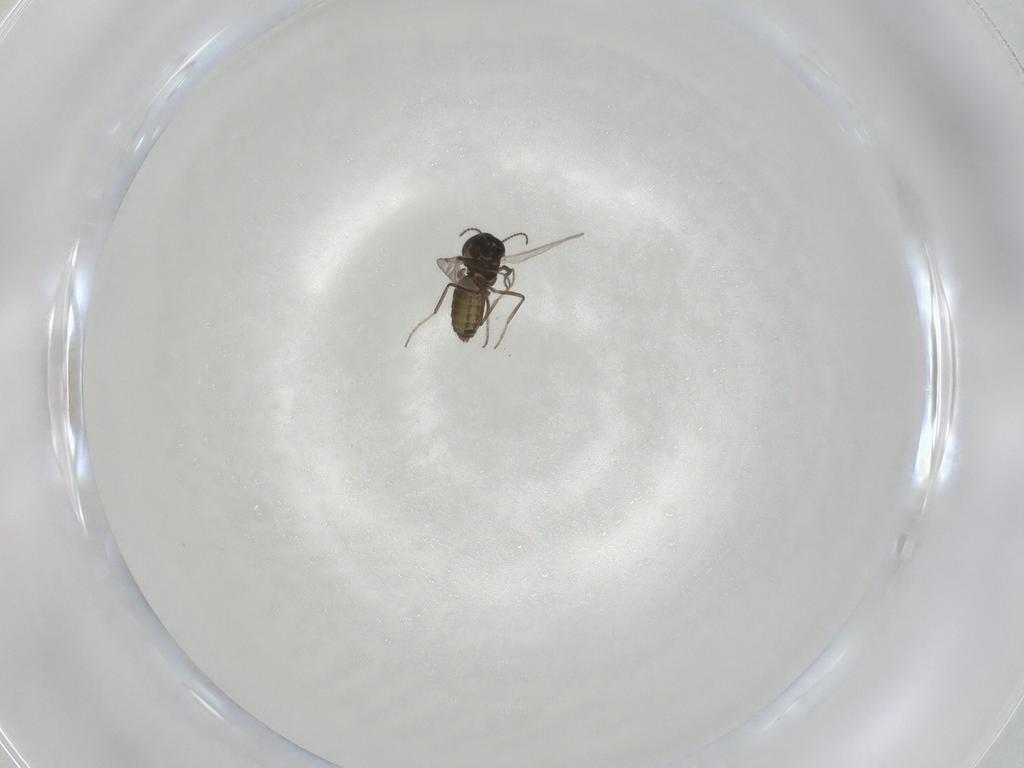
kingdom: Animalia
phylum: Arthropoda
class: Insecta
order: Diptera
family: Ceratopogonidae
